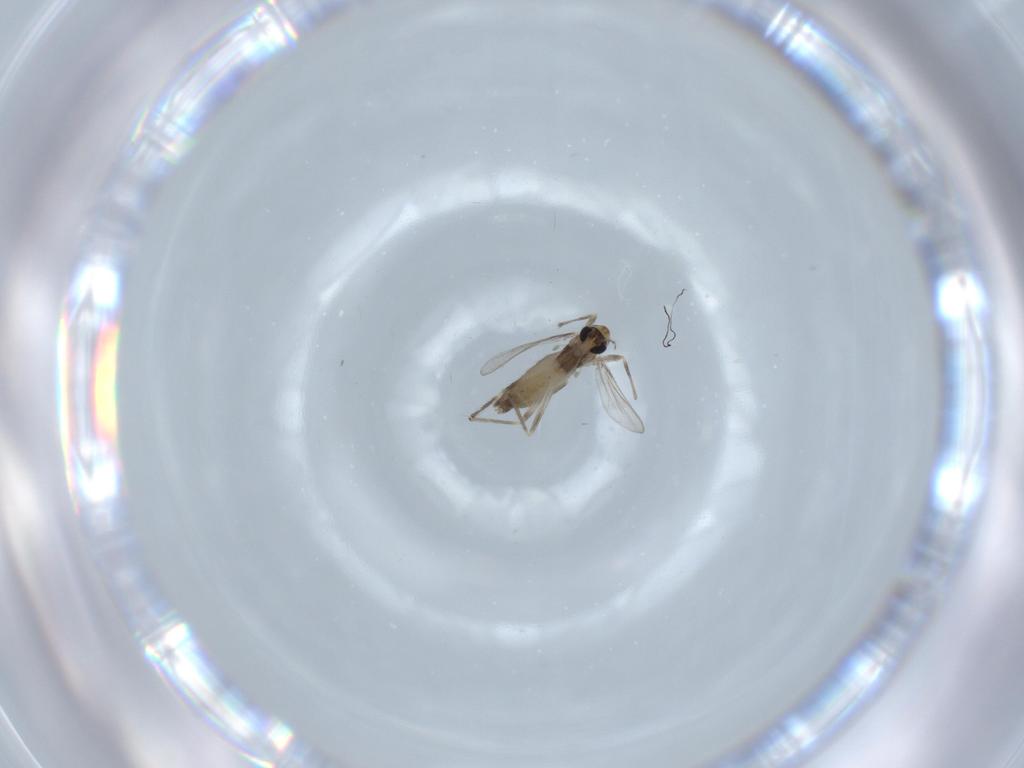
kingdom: Animalia
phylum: Arthropoda
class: Insecta
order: Diptera
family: Chironomidae
